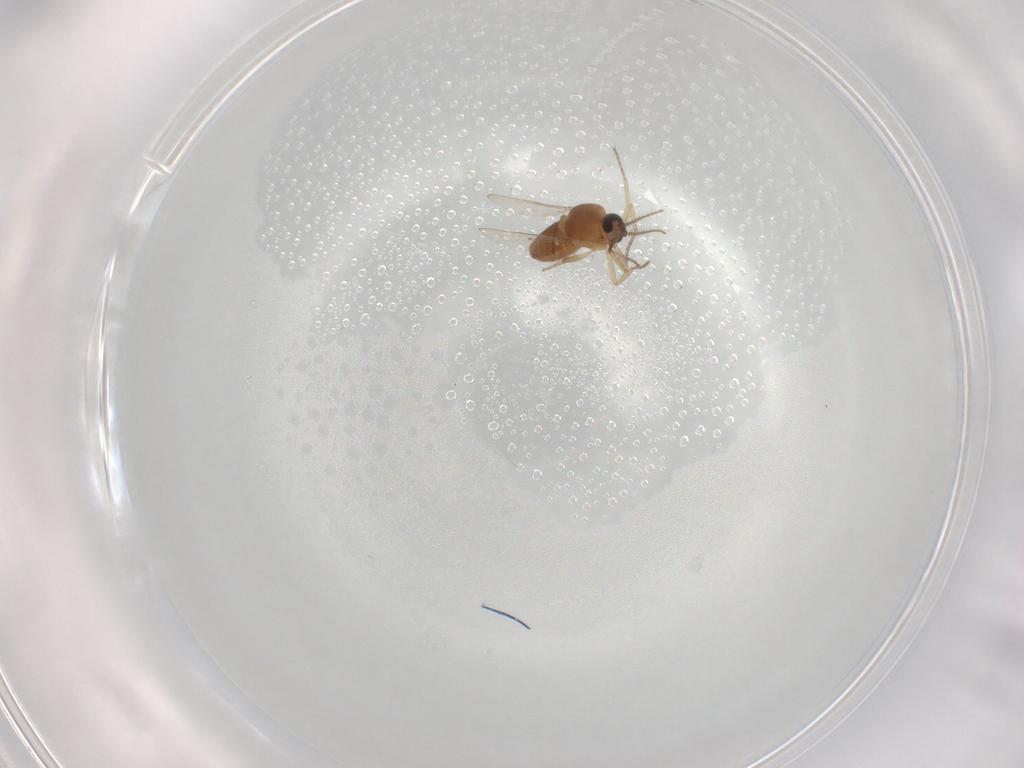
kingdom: Animalia
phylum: Arthropoda
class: Insecta
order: Diptera
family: Ceratopogonidae
